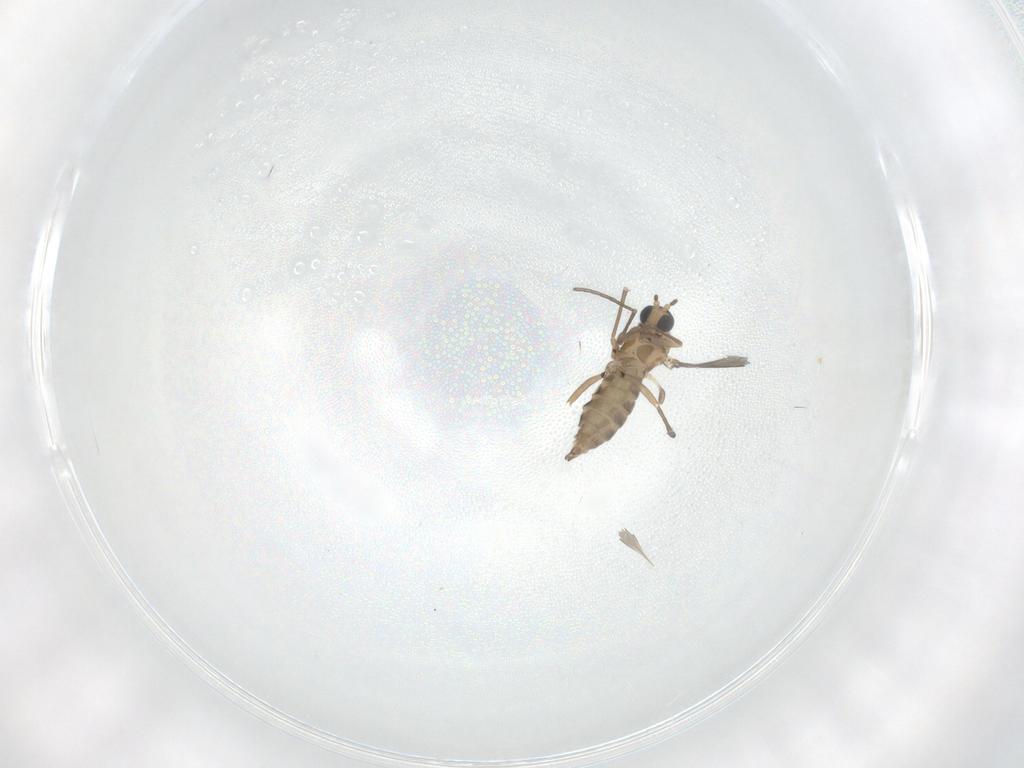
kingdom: Animalia
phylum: Arthropoda
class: Insecta
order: Diptera
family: Sciaridae
